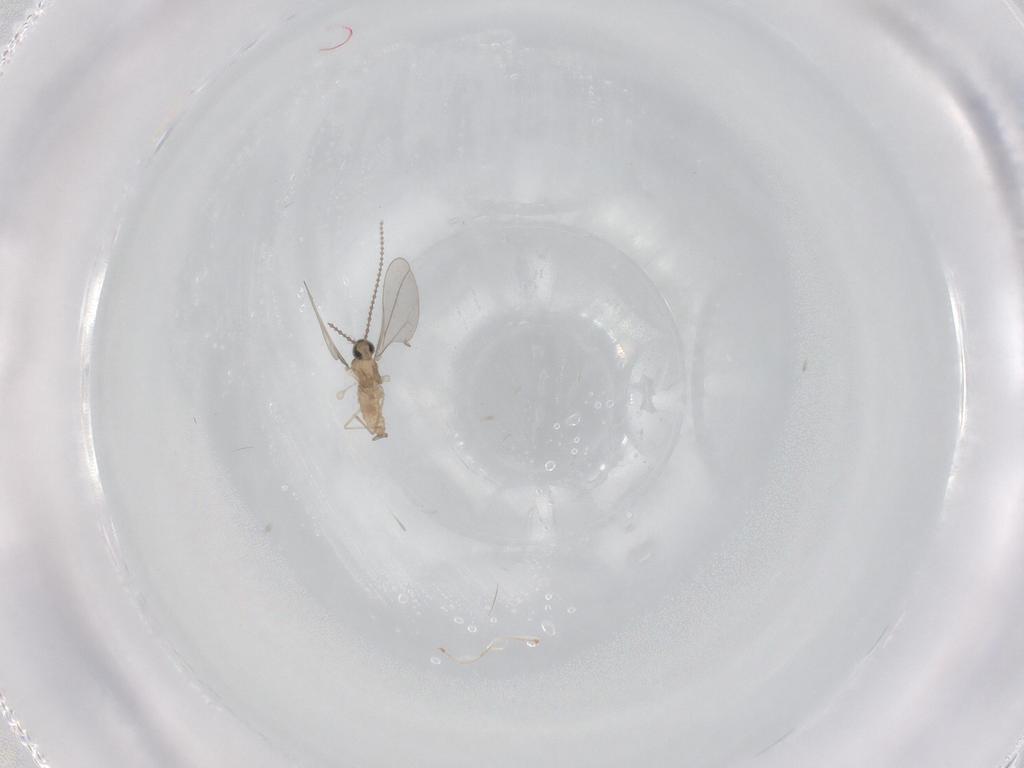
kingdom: Animalia
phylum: Arthropoda
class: Insecta
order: Diptera
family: Cecidomyiidae
